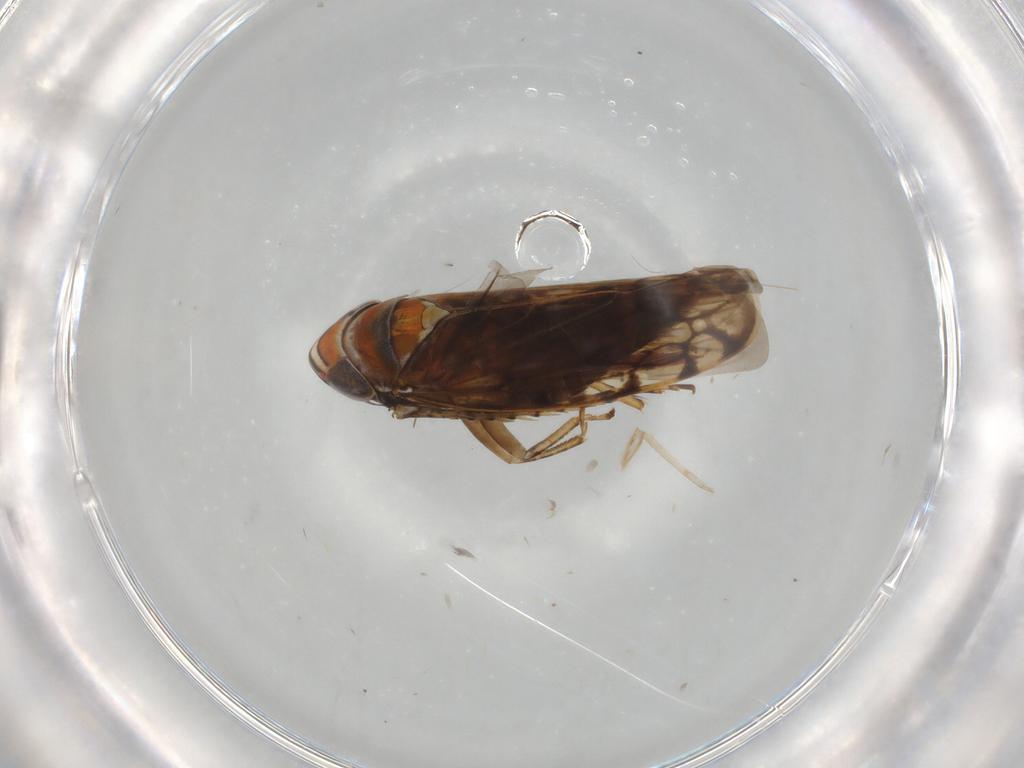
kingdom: Animalia
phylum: Arthropoda
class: Insecta
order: Hemiptera
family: Cicadellidae
